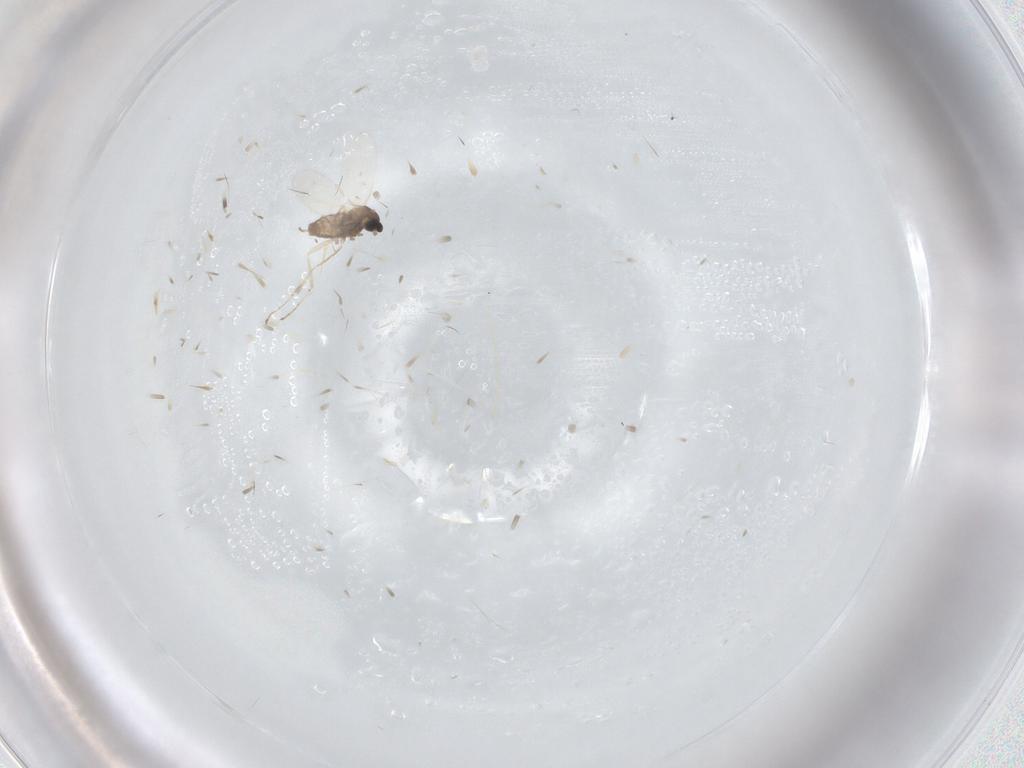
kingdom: Animalia
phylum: Arthropoda
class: Insecta
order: Diptera
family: Cecidomyiidae
